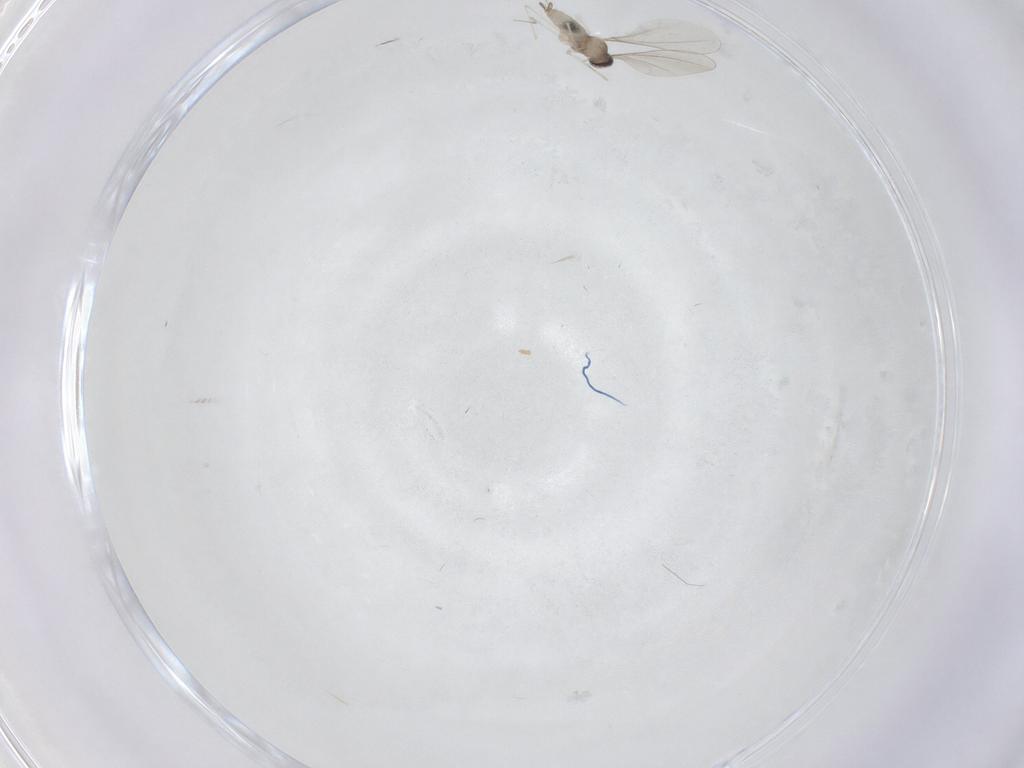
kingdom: Animalia
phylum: Arthropoda
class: Insecta
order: Diptera
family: Cecidomyiidae
